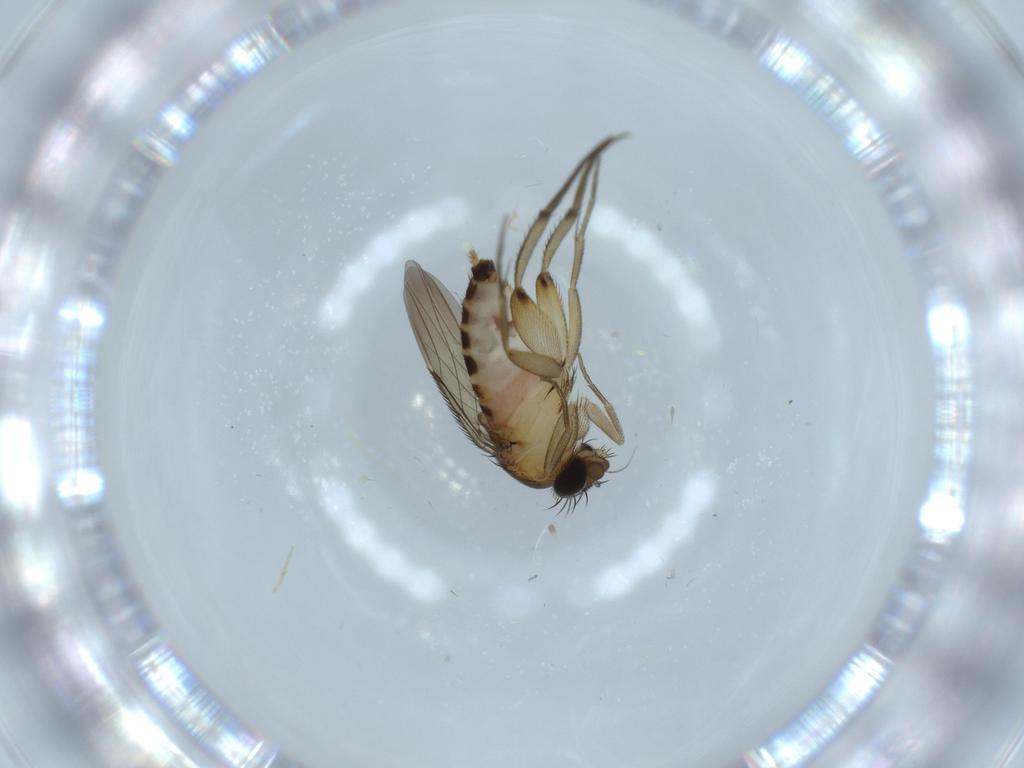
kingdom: Animalia
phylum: Arthropoda
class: Insecta
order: Diptera
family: Phoridae
